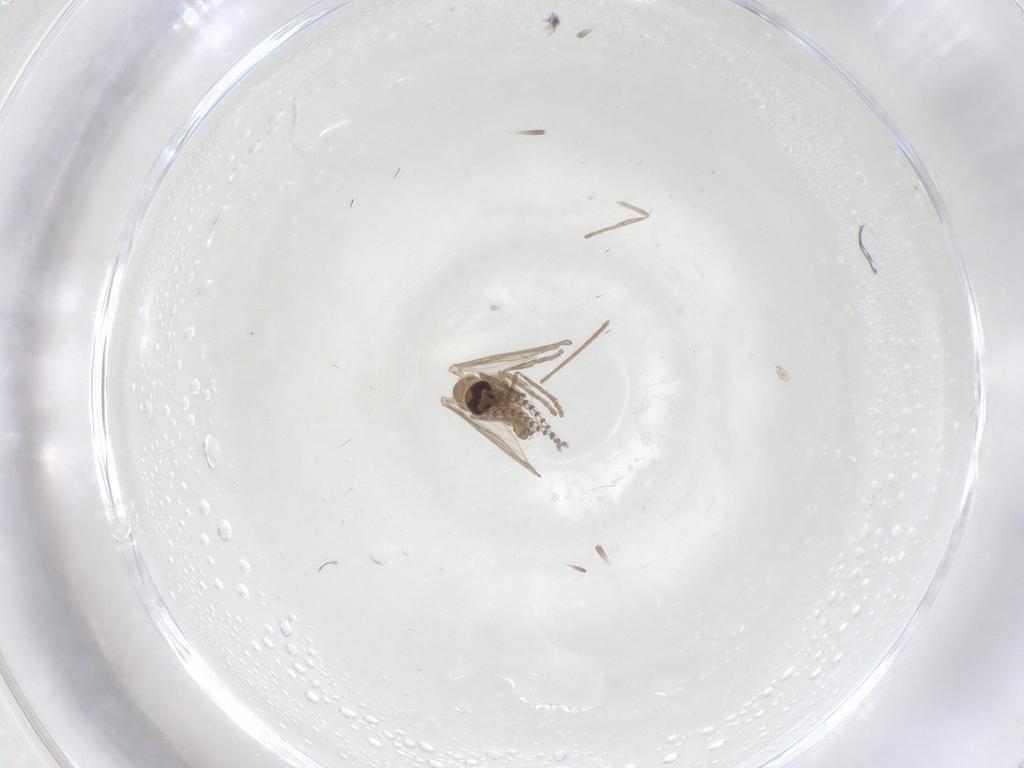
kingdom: Animalia
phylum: Arthropoda
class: Insecta
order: Diptera
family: Chironomidae
